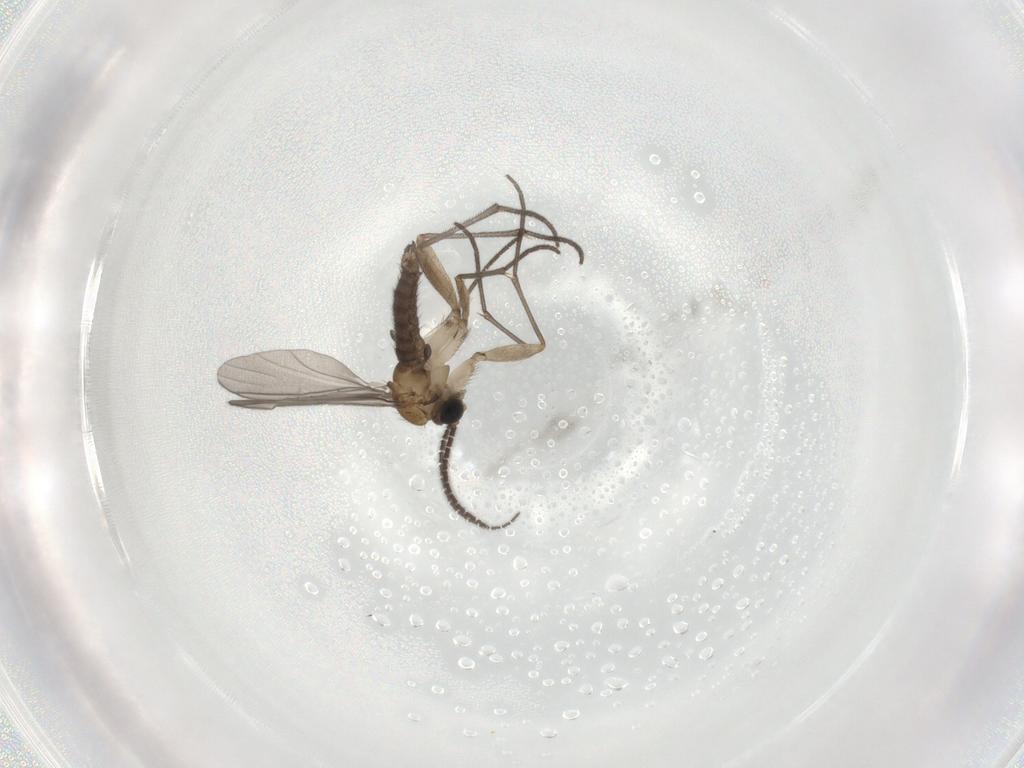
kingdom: Animalia
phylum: Arthropoda
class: Insecta
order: Diptera
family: Sciaridae
